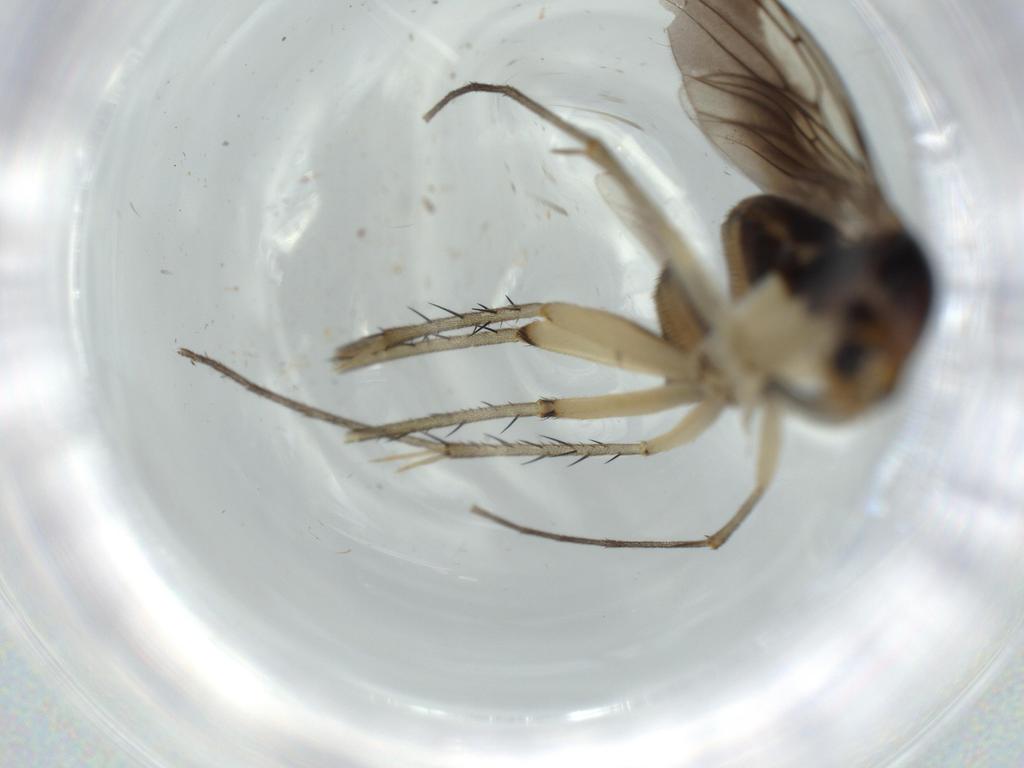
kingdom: Animalia
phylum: Arthropoda
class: Insecta
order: Diptera
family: Mycetophilidae
